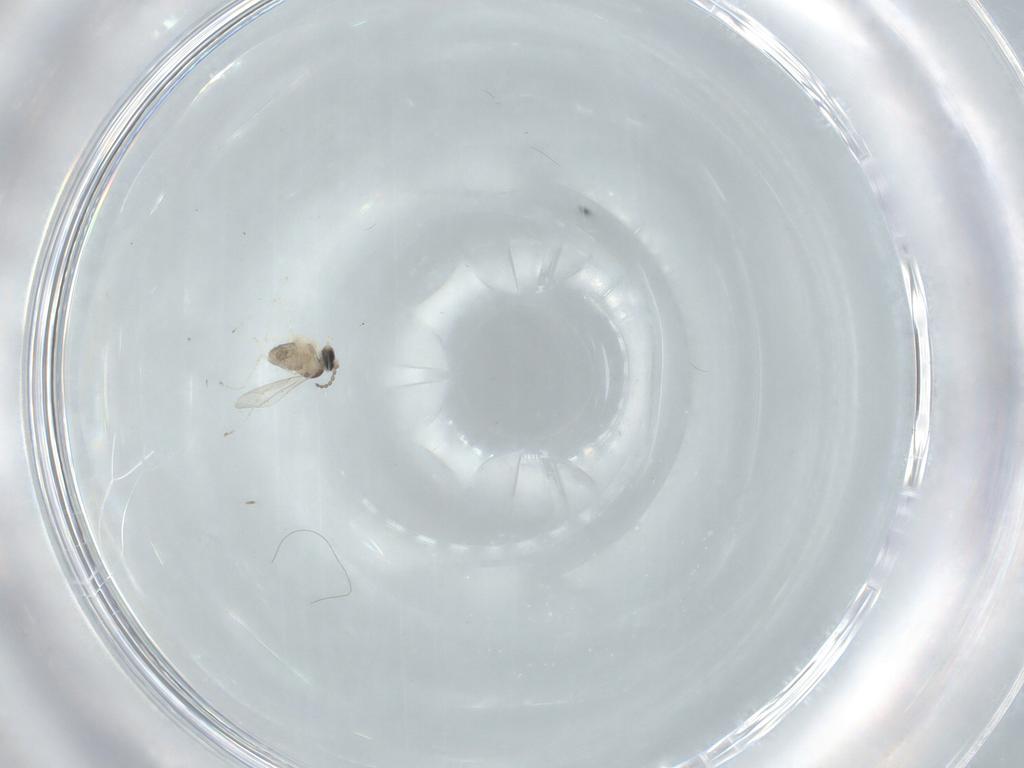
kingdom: Animalia
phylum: Arthropoda
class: Insecta
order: Diptera
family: Cecidomyiidae
